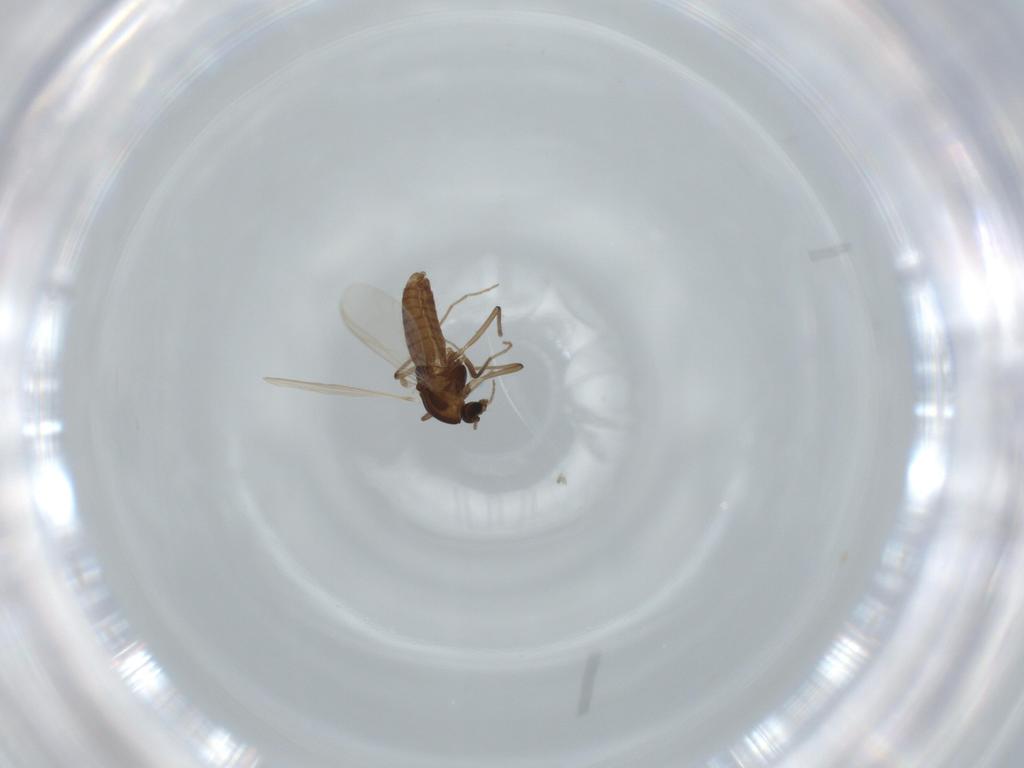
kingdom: Animalia
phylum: Arthropoda
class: Insecta
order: Diptera
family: Chironomidae
